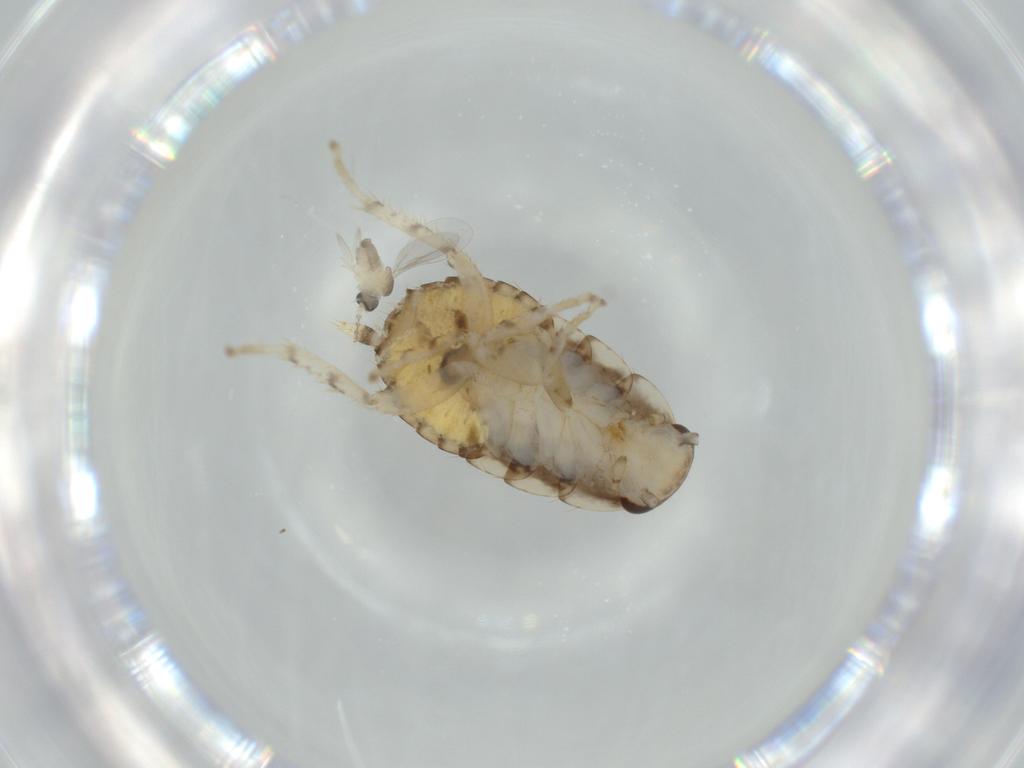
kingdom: Animalia
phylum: Arthropoda
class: Insecta
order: Blattodea
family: Ectobiidae
